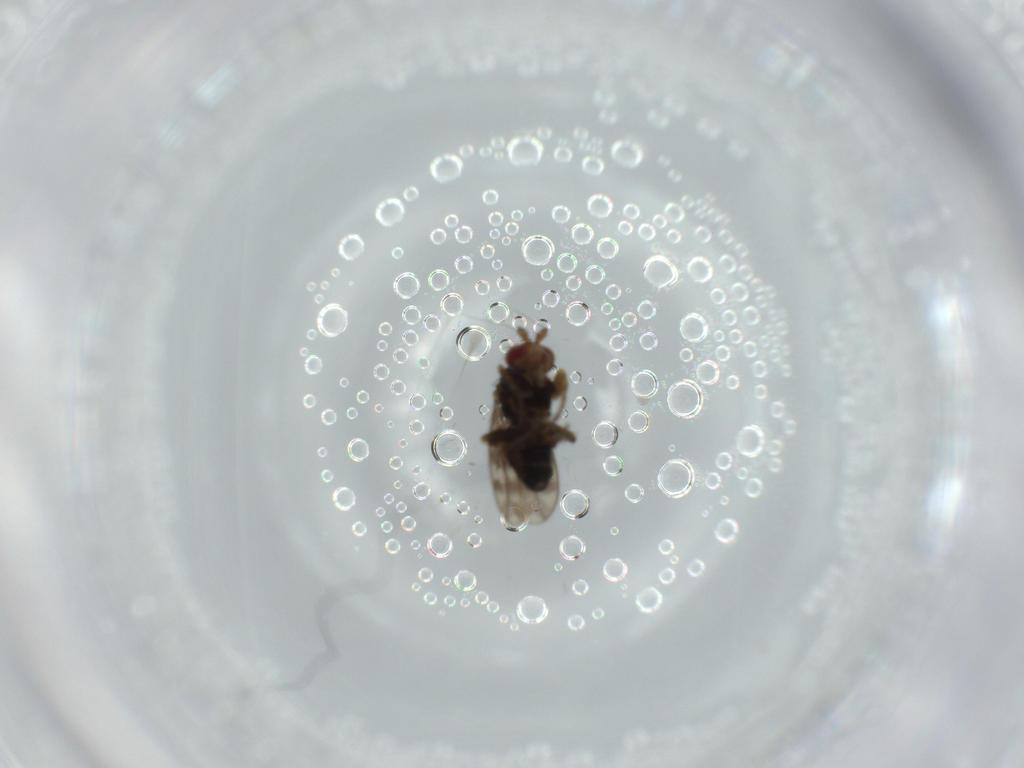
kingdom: Animalia
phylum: Arthropoda
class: Insecta
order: Diptera
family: Sphaeroceridae
